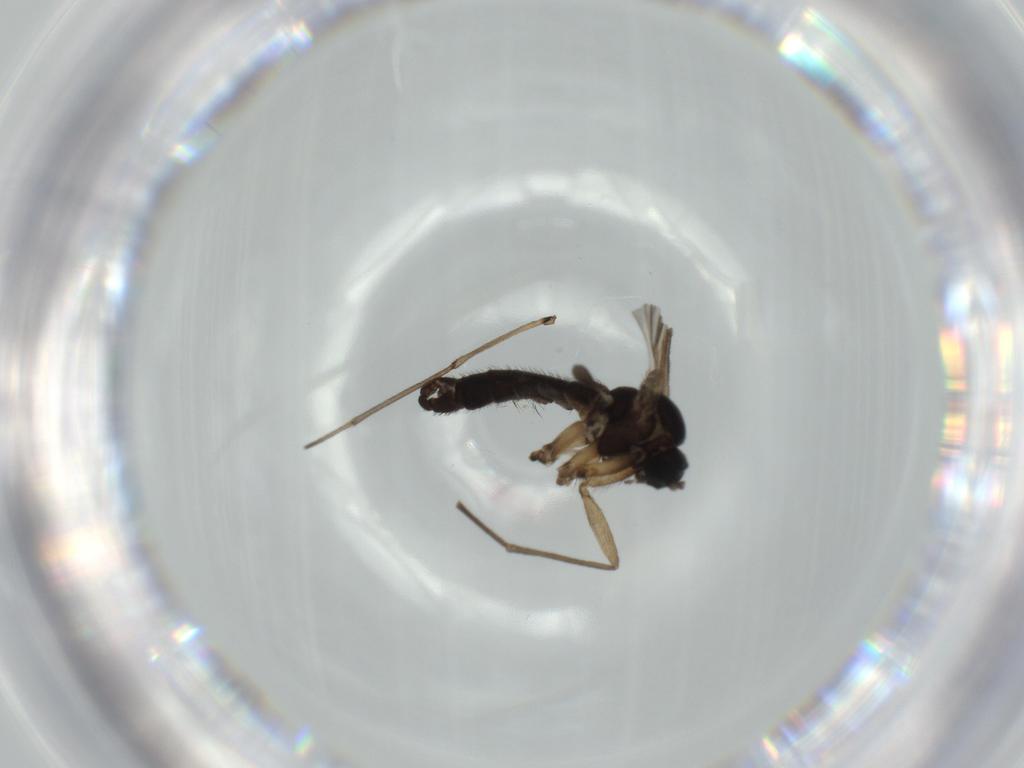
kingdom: Animalia
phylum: Arthropoda
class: Insecta
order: Diptera
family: Sciaridae
